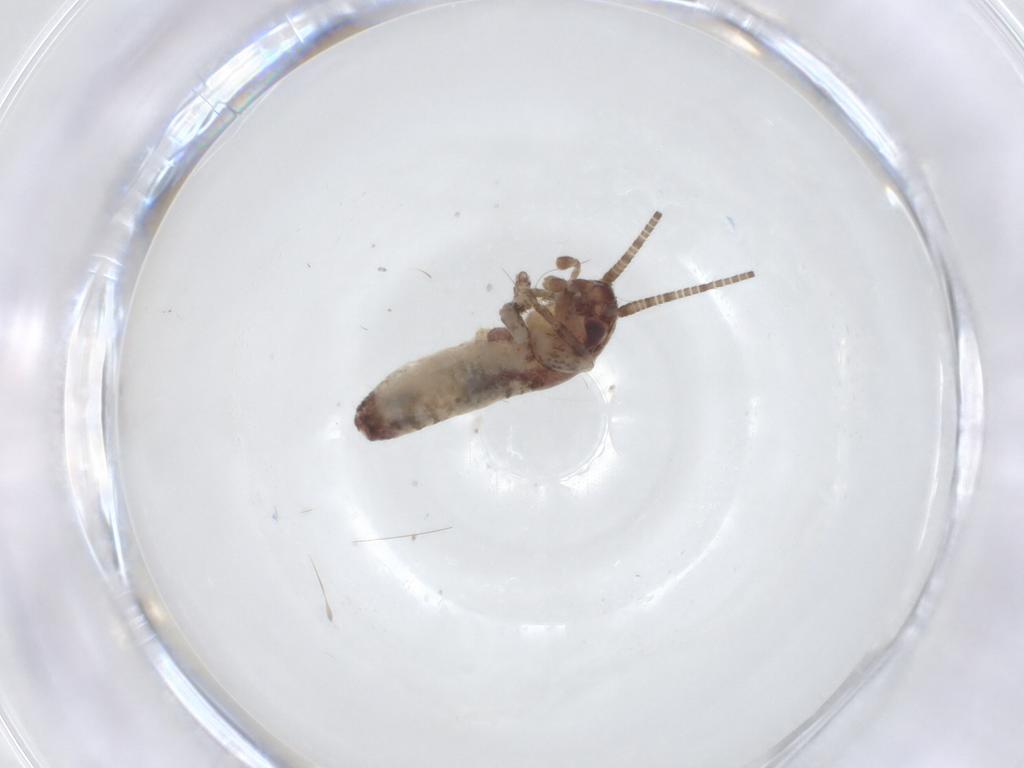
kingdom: Animalia
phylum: Arthropoda
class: Insecta
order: Orthoptera
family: Gryllidae
